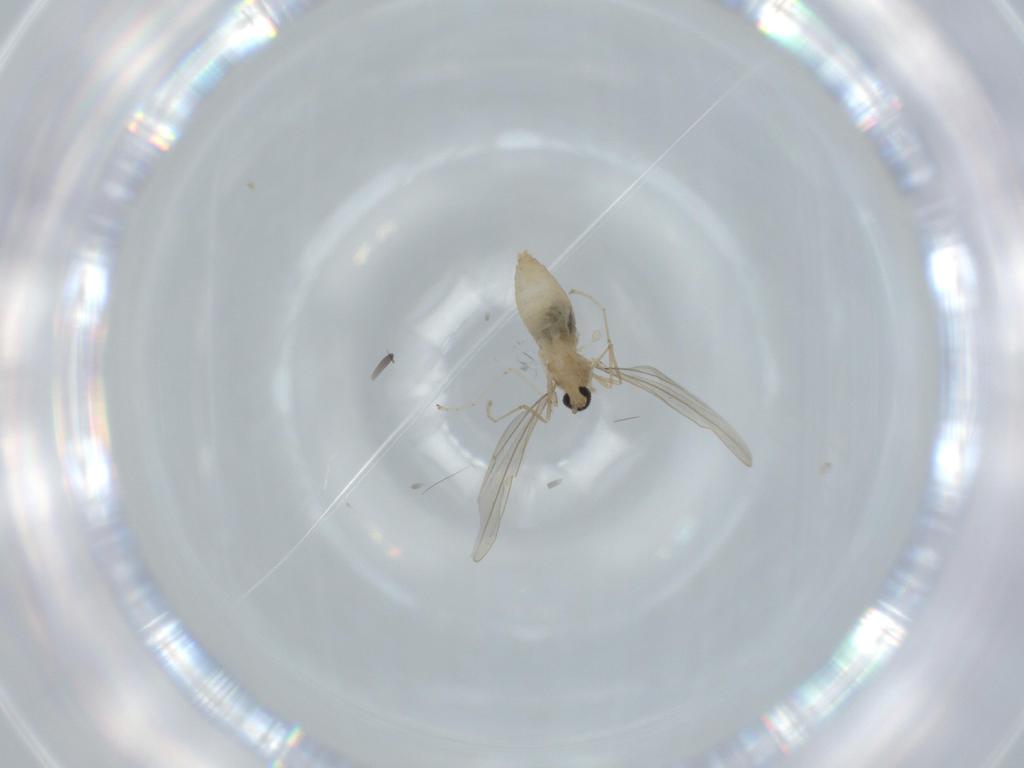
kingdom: Animalia
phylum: Arthropoda
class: Insecta
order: Diptera
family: Cecidomyiidae
